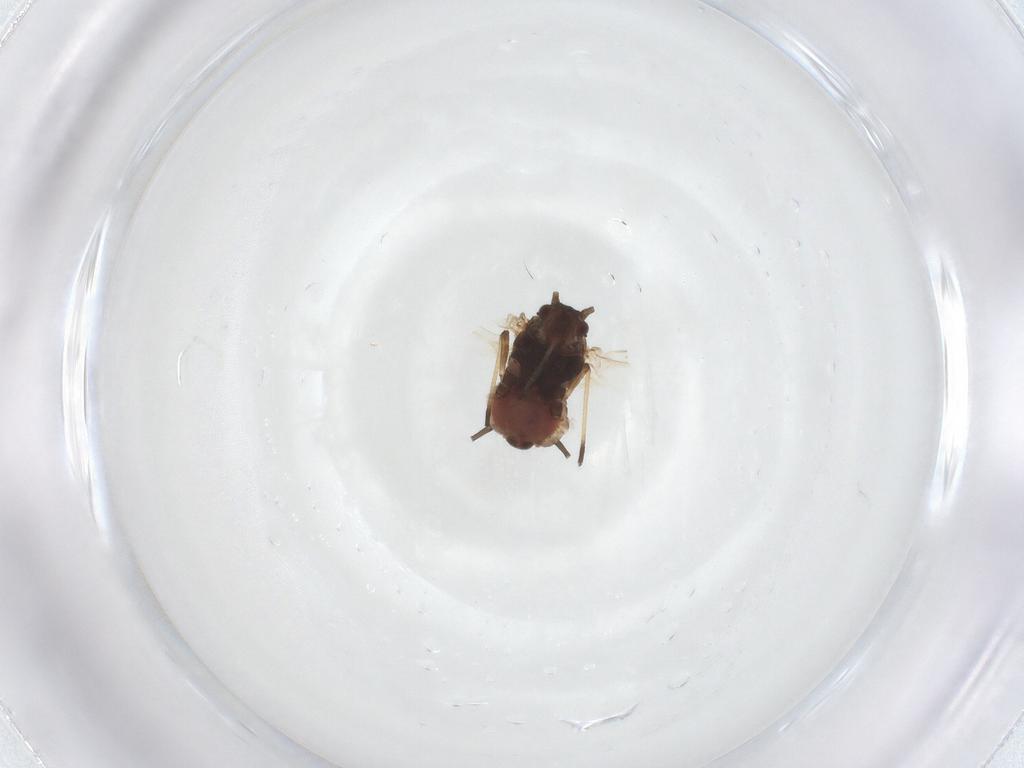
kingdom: Animalia
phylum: Arthropoda
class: Insecta
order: Hemiptera
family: Aphididae
